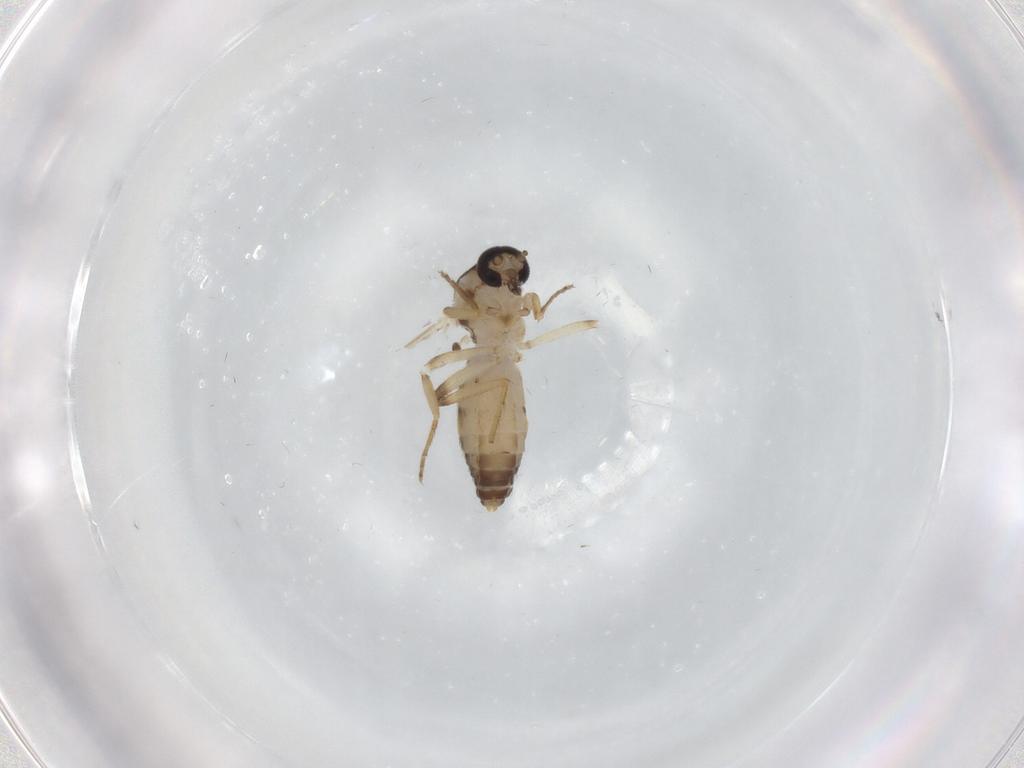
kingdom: Animalia
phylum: Arthropoda
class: Insecta
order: Diptera
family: Ceratopogonidae
